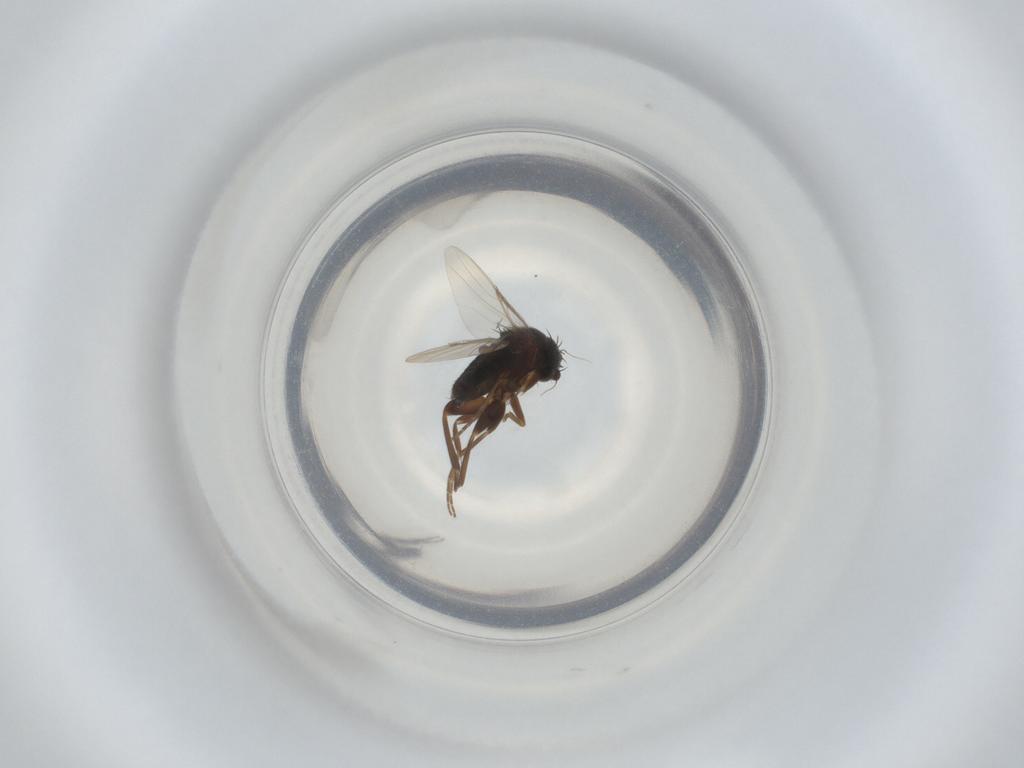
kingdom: Animalia
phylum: Arthropoda
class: Insecta
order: Diptera
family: Phoridae
